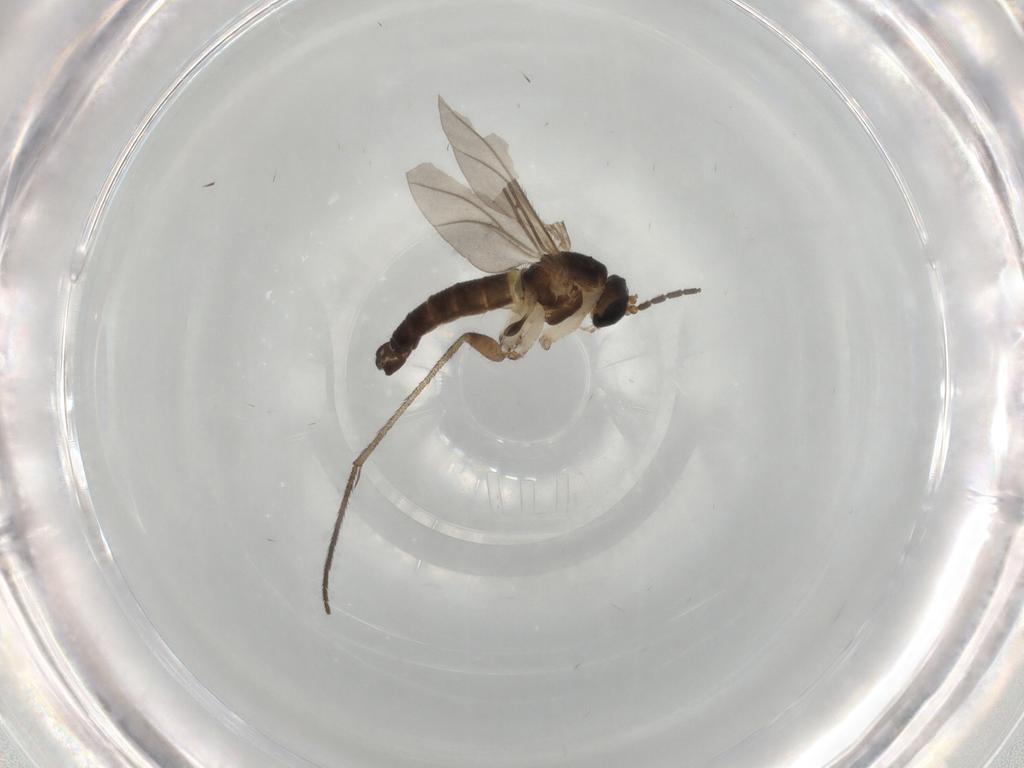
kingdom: Animalia
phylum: Arthropoda
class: Insecta
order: Diptera
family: Sciaridae
